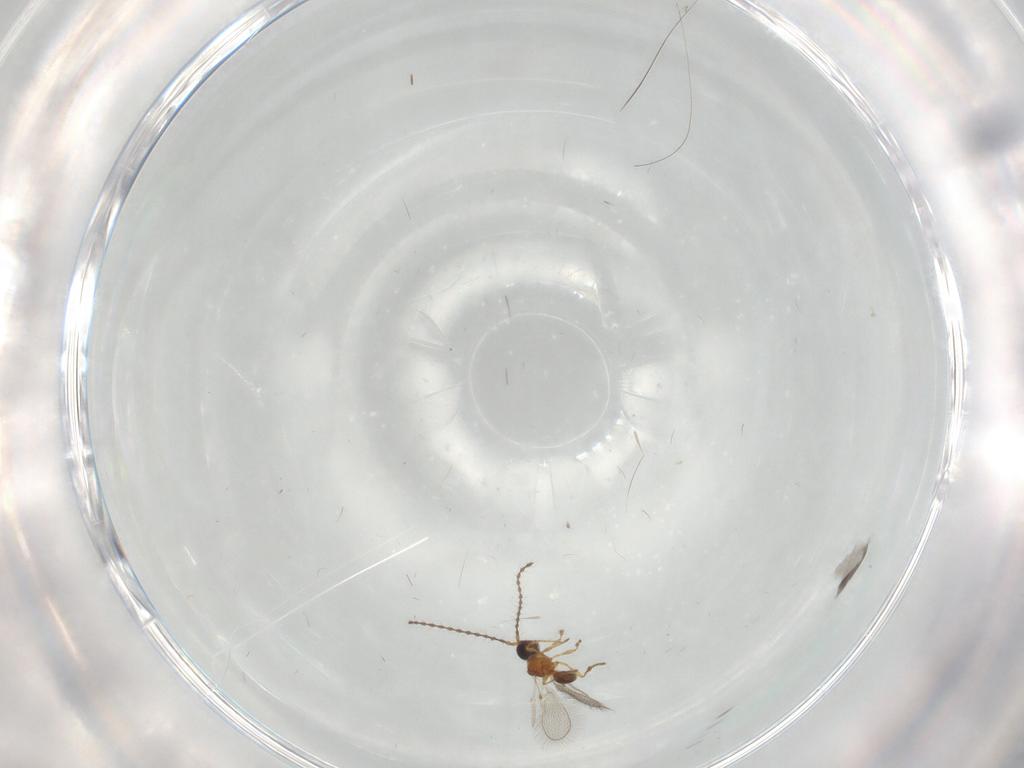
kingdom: Animalia
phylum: Arthropoda
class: Insecta
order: Hymenoptera
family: Diapriidae
